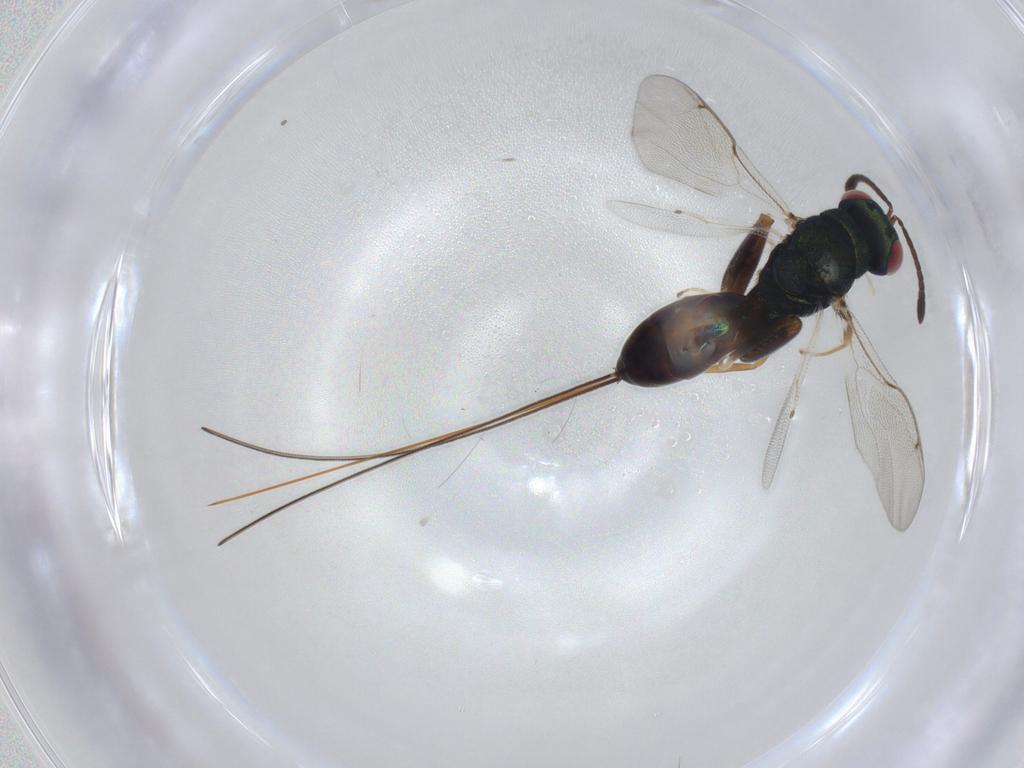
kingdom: Animalia
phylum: Arthropoda
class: Insecta
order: Hymenoptera
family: Torymidae
